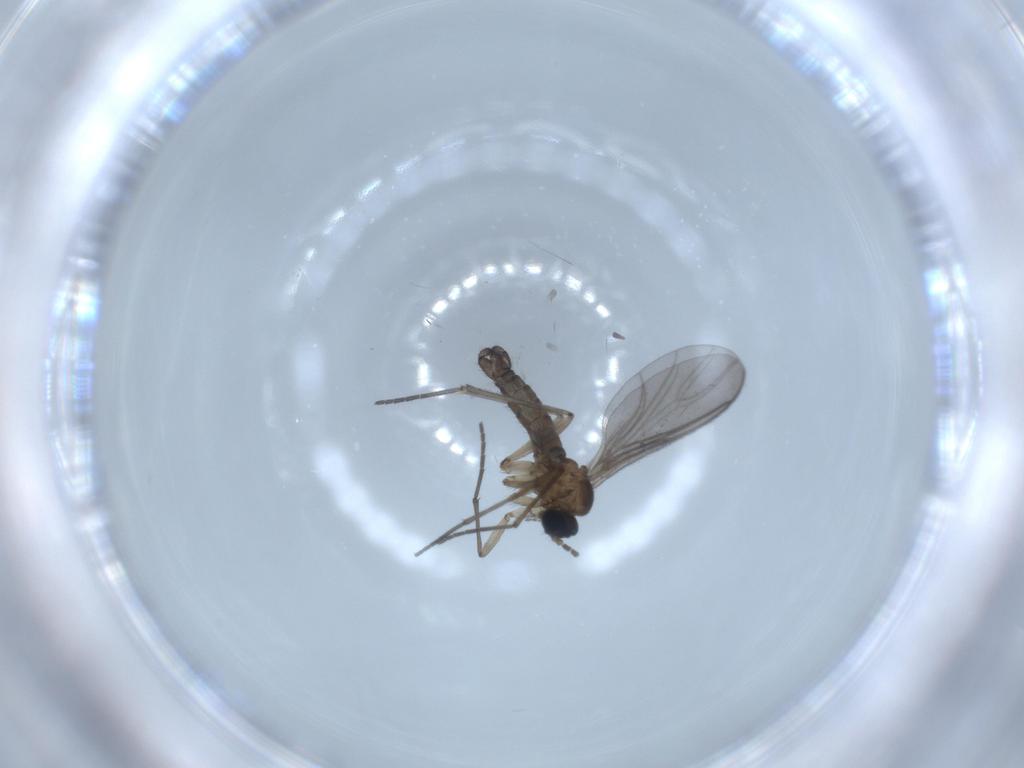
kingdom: Animalia
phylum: Arthropoda
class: Insecta
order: Diptera
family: Sciaridae
